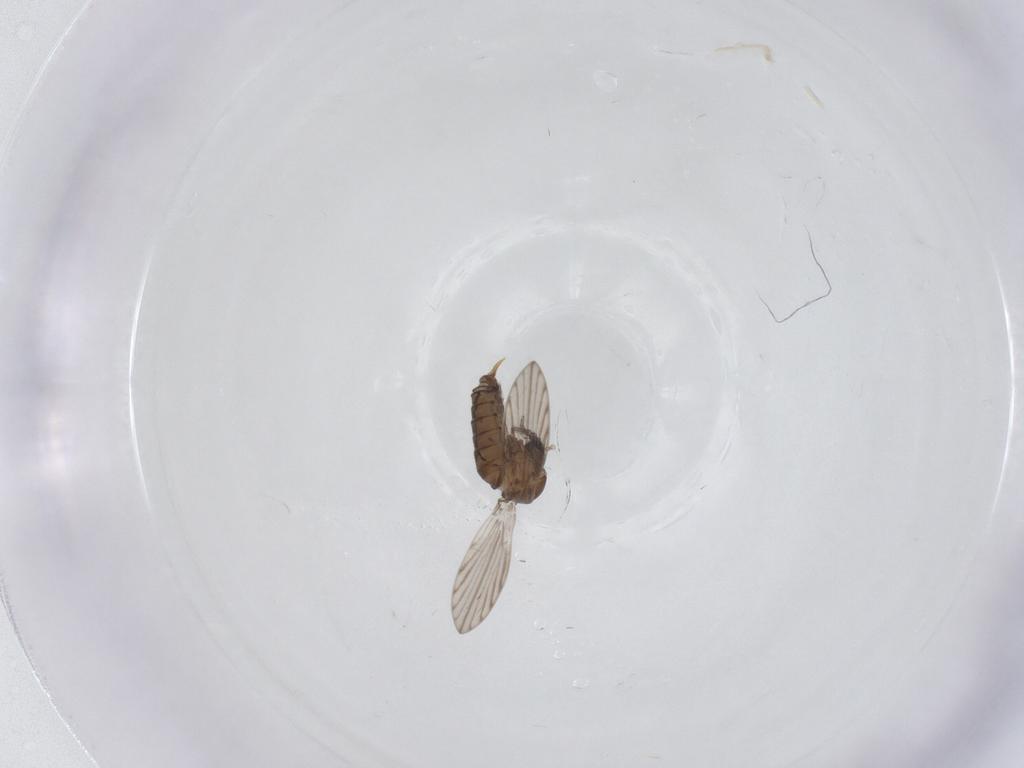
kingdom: Animalia
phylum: Arthropoda
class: Insecta
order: Diptera
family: Psychodidae
